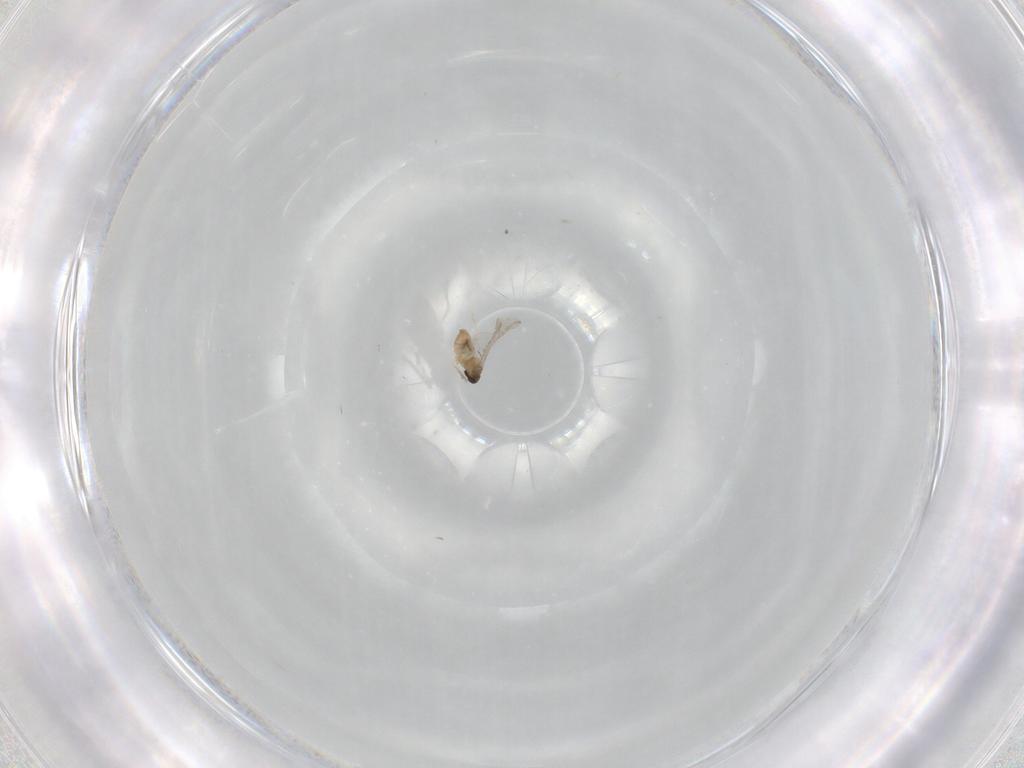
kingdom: Animalia
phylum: Arthropoda
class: Insecta
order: Diptera
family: Cecidomyiidae
